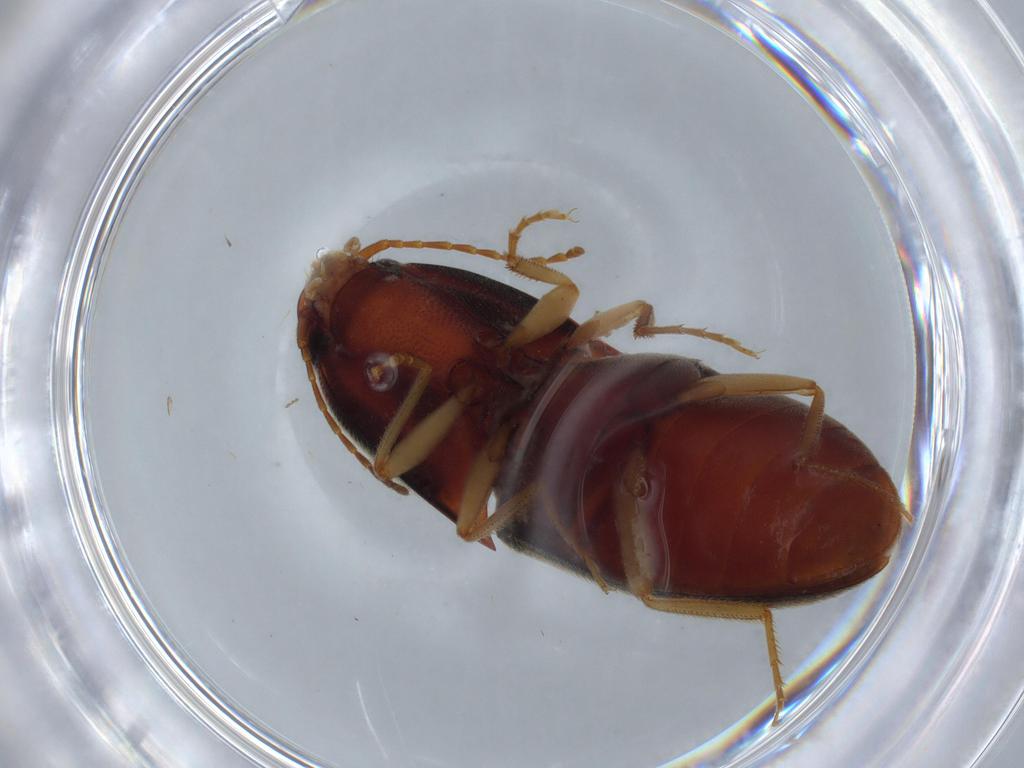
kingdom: Animalia
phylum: Arthropoda
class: Insecta
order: Coleoptera
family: Elateridae
